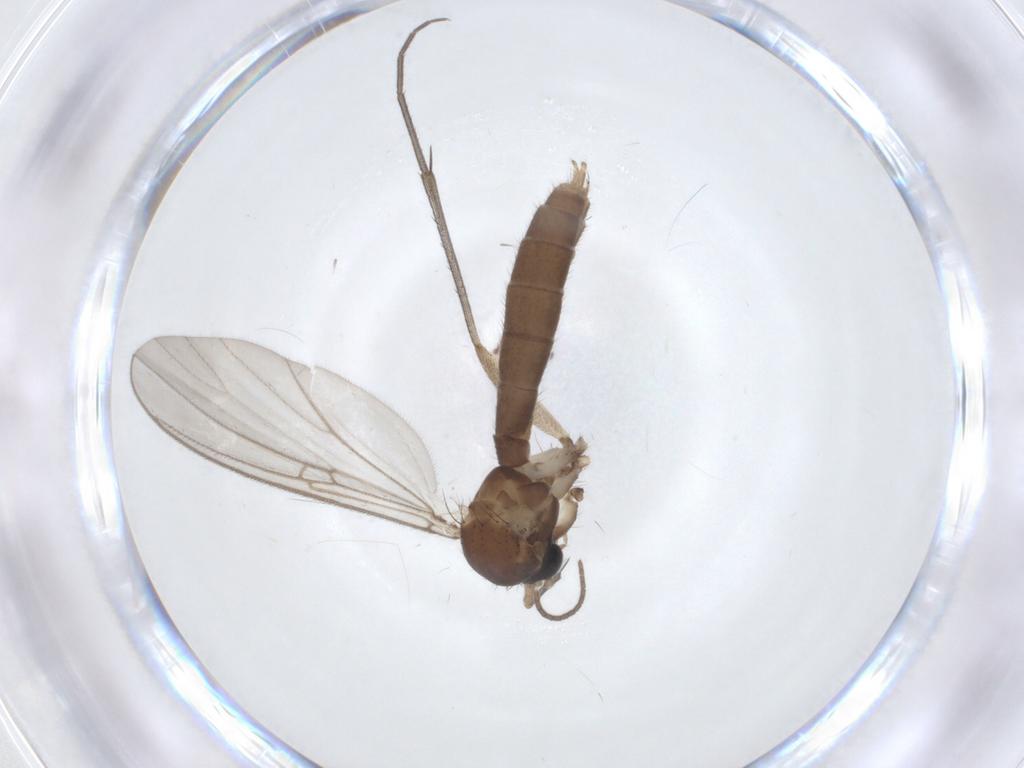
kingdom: Animalia
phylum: Arthropoda
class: Insecta
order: Diptera
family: Mycetophilidae
